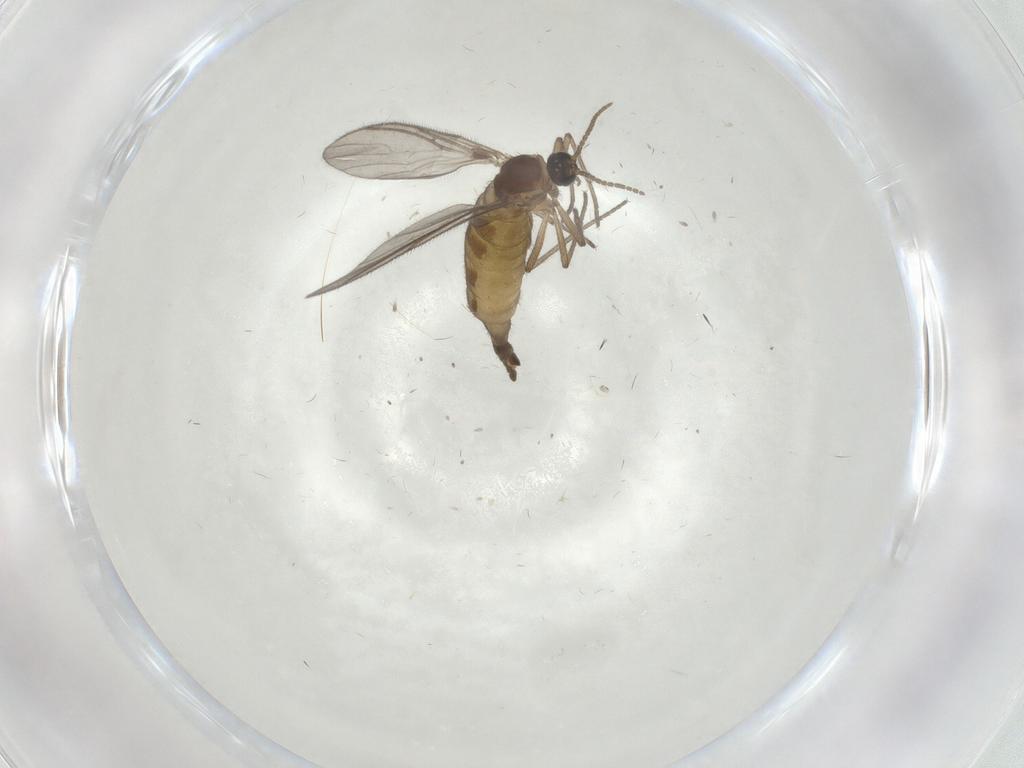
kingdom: Animalia
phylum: Arthropoda
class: Insecta
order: Diptera
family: Sciaridae
